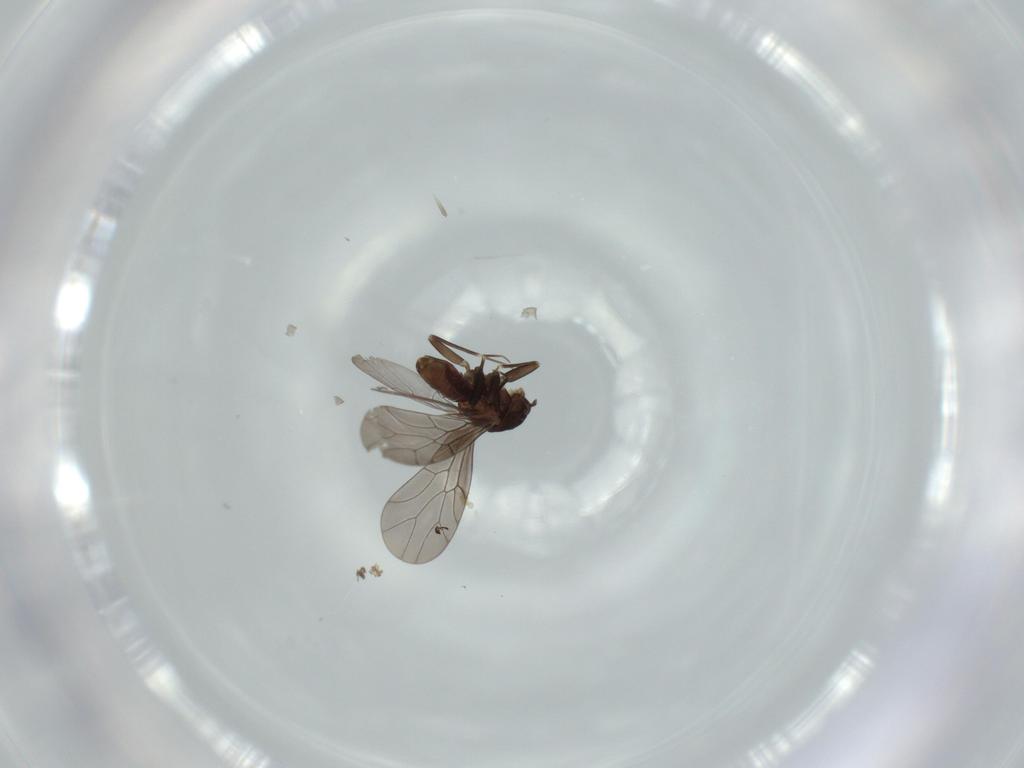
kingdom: Animalia
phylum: Arthropoda
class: Insecta
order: Psocodea
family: Lepidopsocidae
